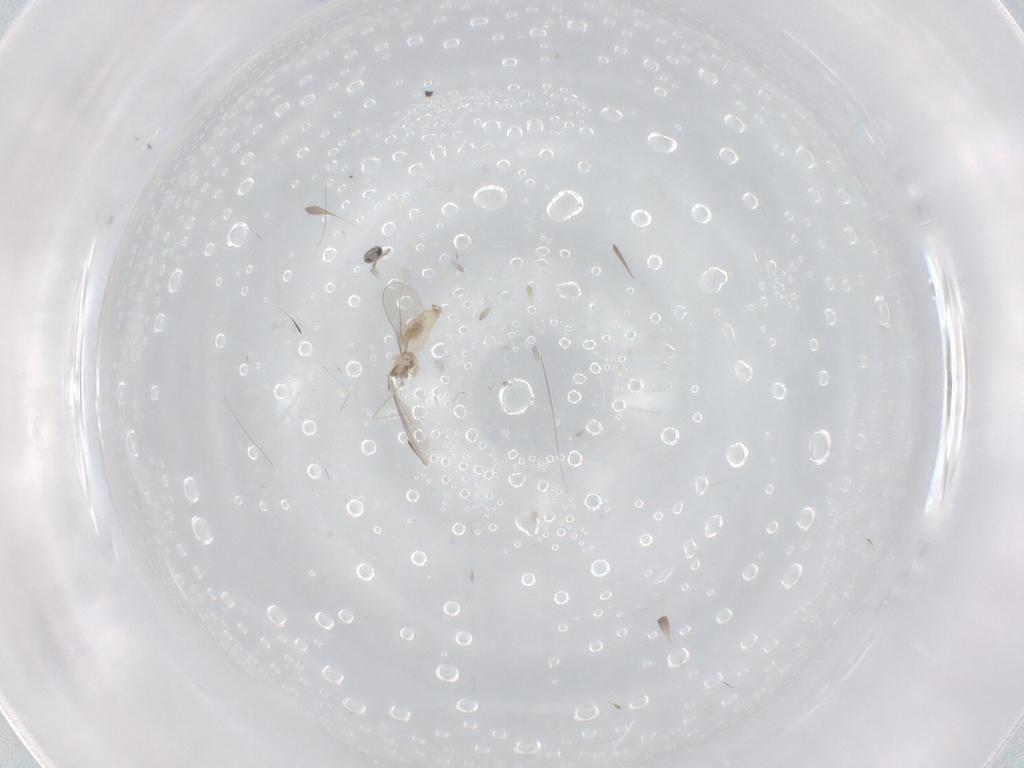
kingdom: Animalia
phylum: Arthropoda
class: Insecta
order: Diptera
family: Cecidomyiidae
